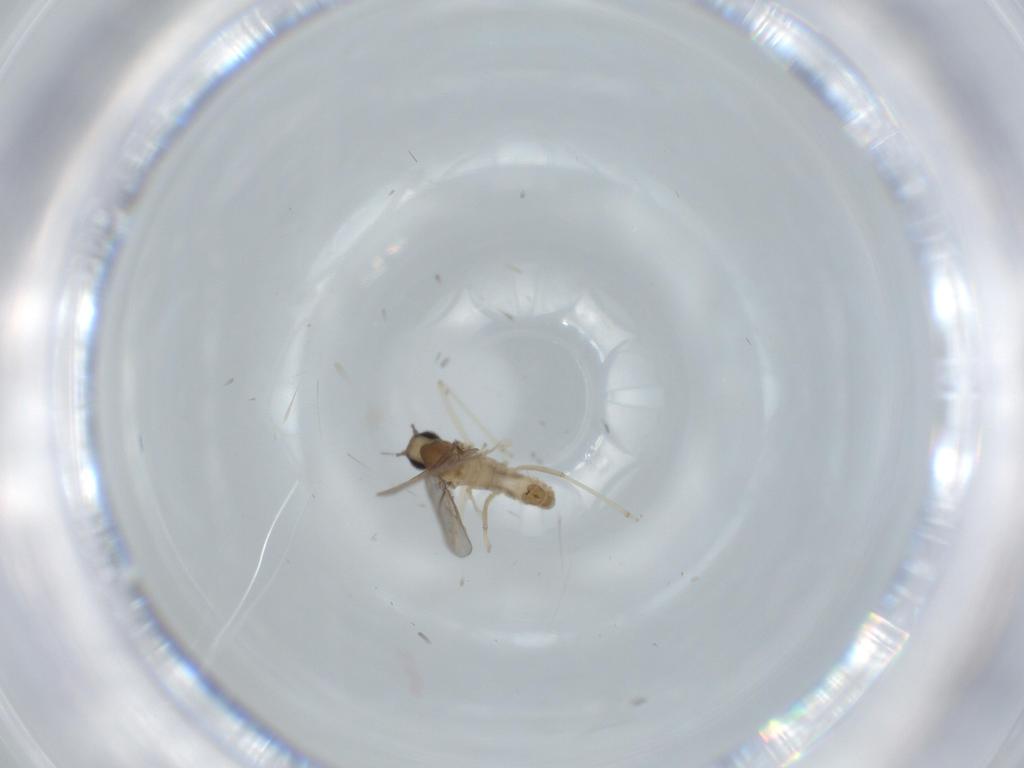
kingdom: Animalia
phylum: Arthropoda
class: Insecta
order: Diptera
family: Cecidomyiidae
